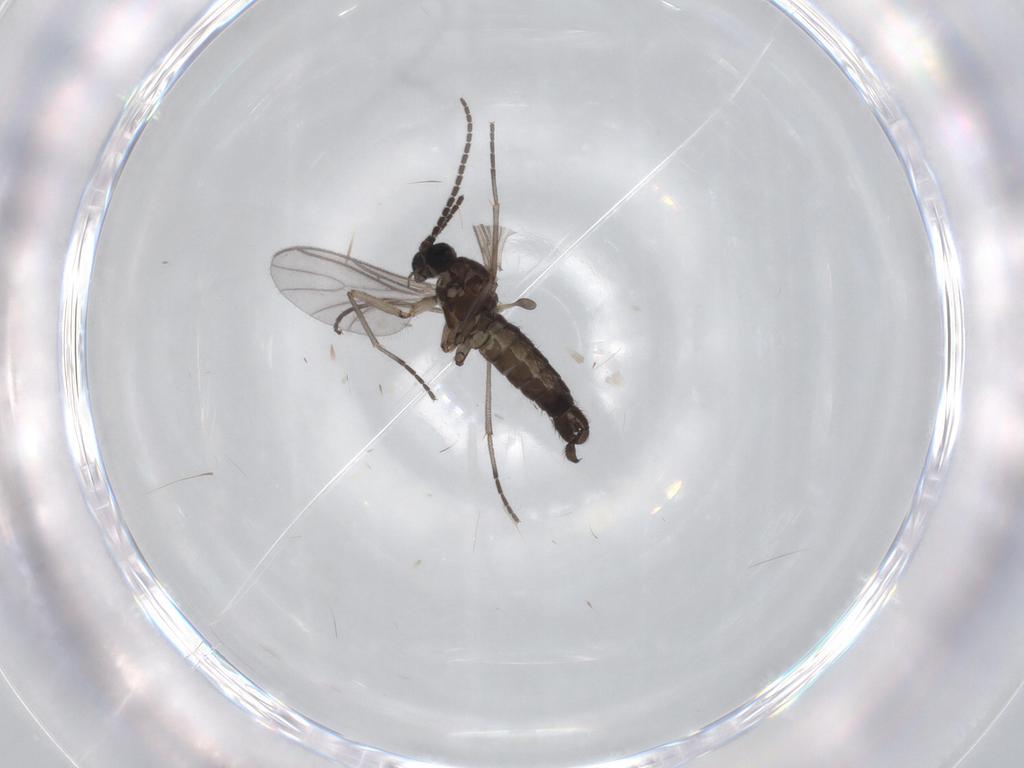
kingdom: Animalia
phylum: Arthropoda
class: Insecta
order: Diptera
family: Sciaridae
